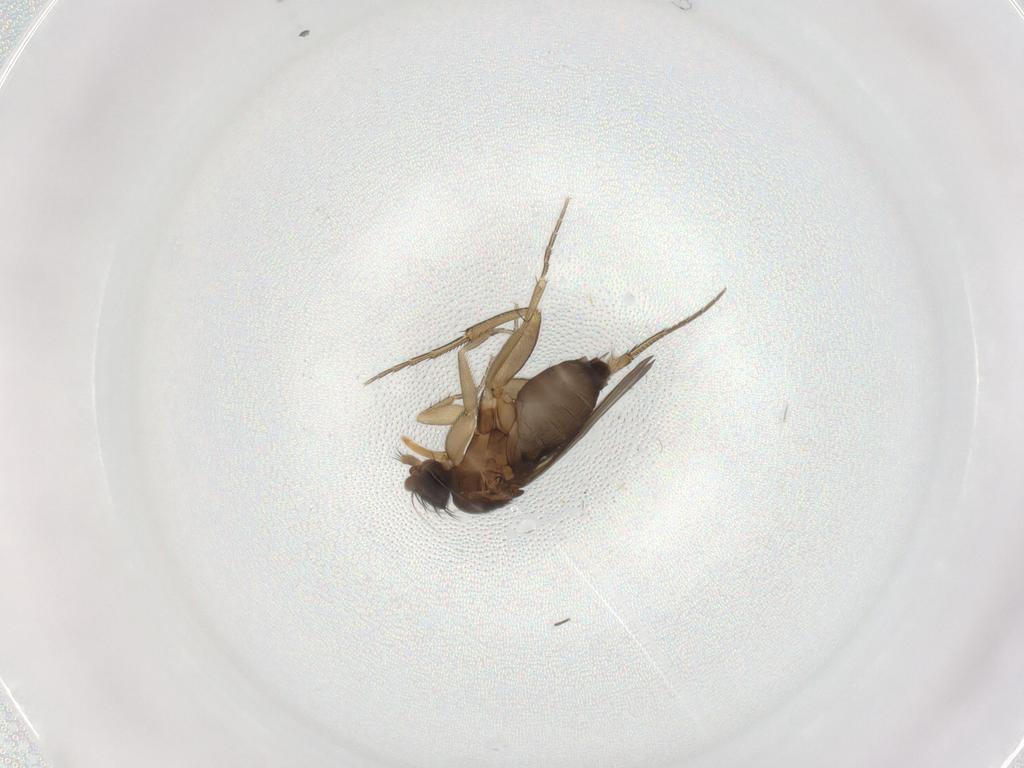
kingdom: Animalia
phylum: Arthropoda
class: Insecta
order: Diptera
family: Phoridae
